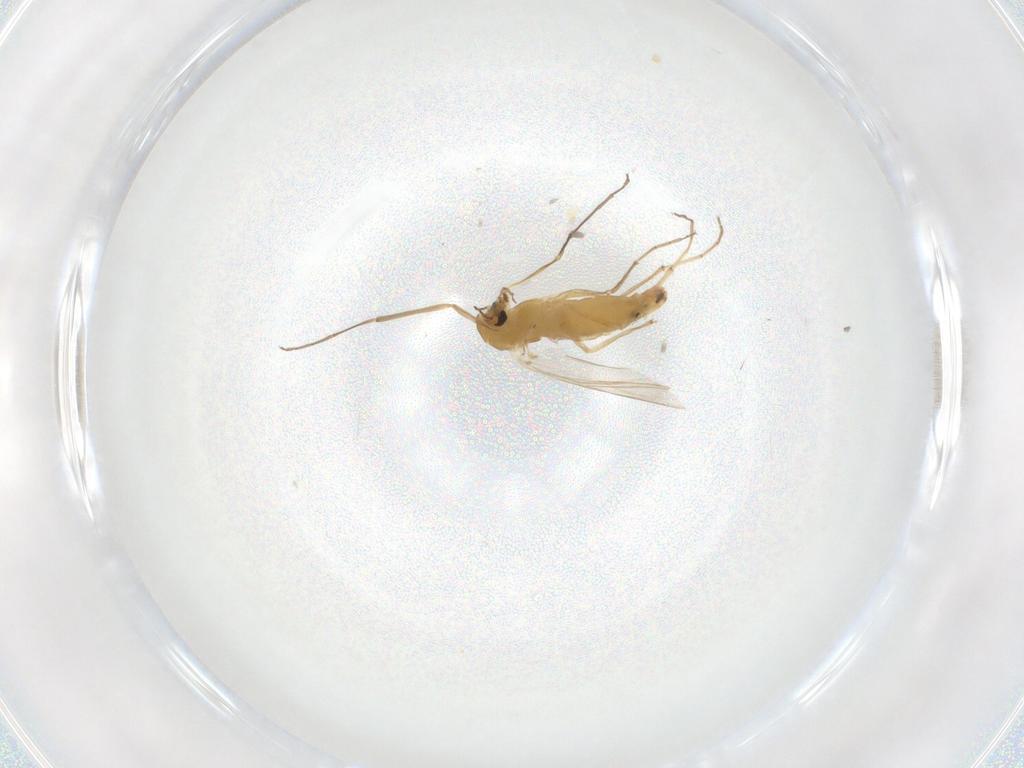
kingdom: Animalia
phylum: Arthropoda
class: Insecta
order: Diptera
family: Chironomidae
